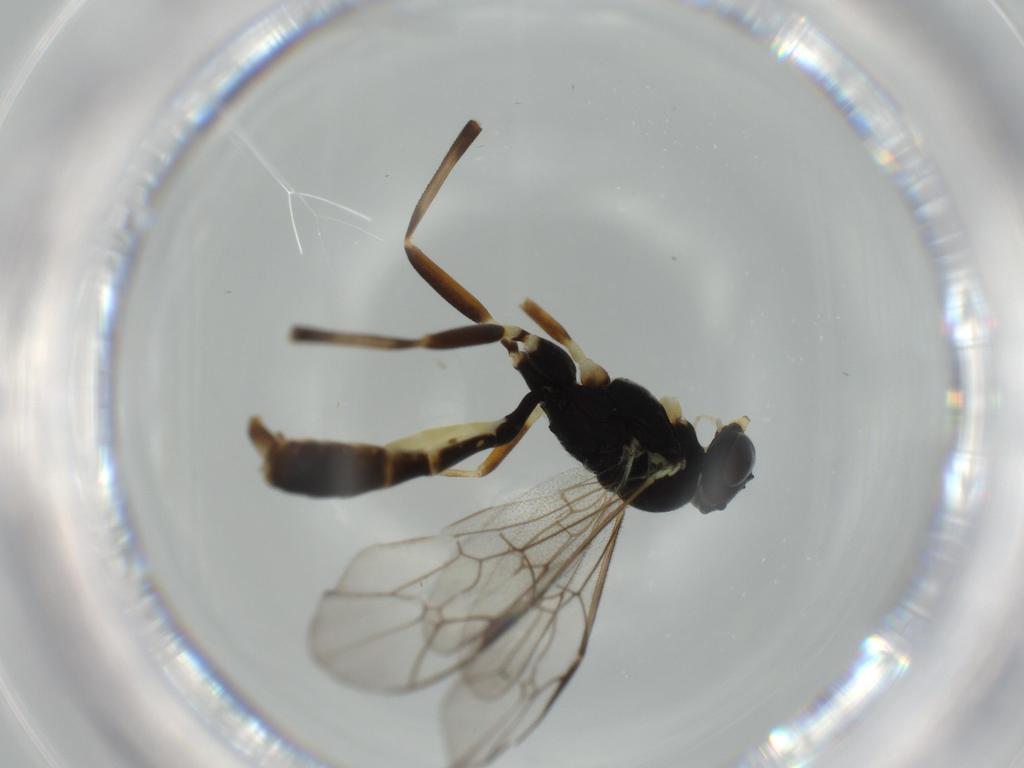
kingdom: Animalia
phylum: Arthropoda
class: Insecta
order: Hymenoptera
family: Ichneumonidae
